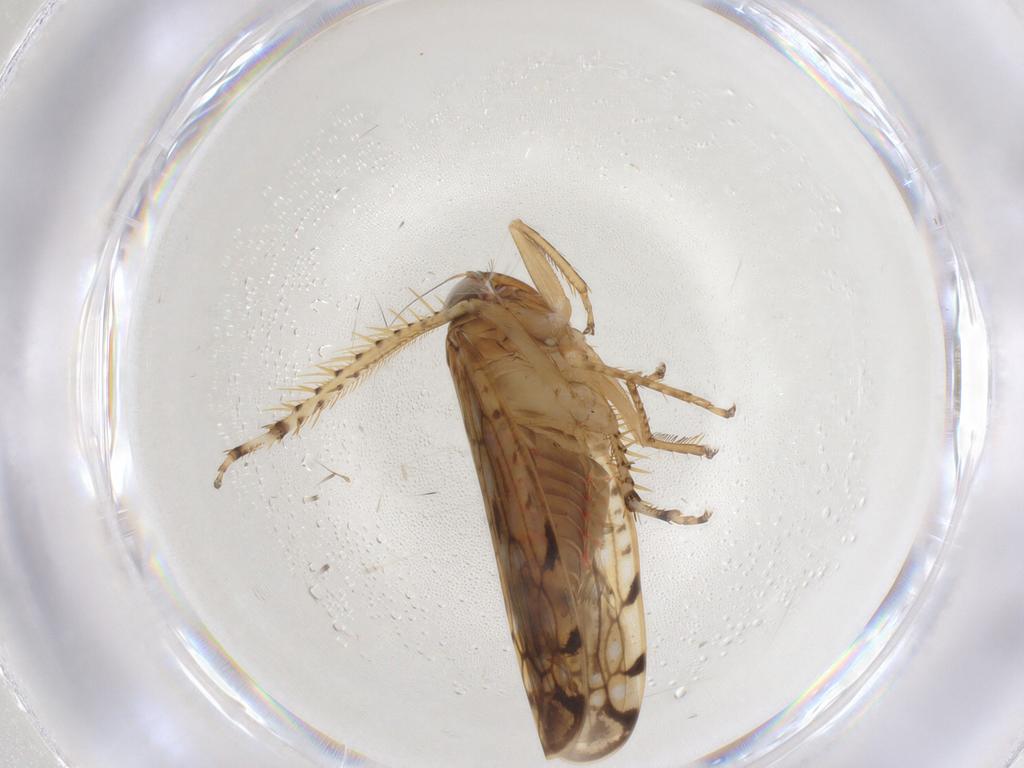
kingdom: Animalia
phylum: Arthropoda
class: Insecta
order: Hemiptera
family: Cicadellidae
